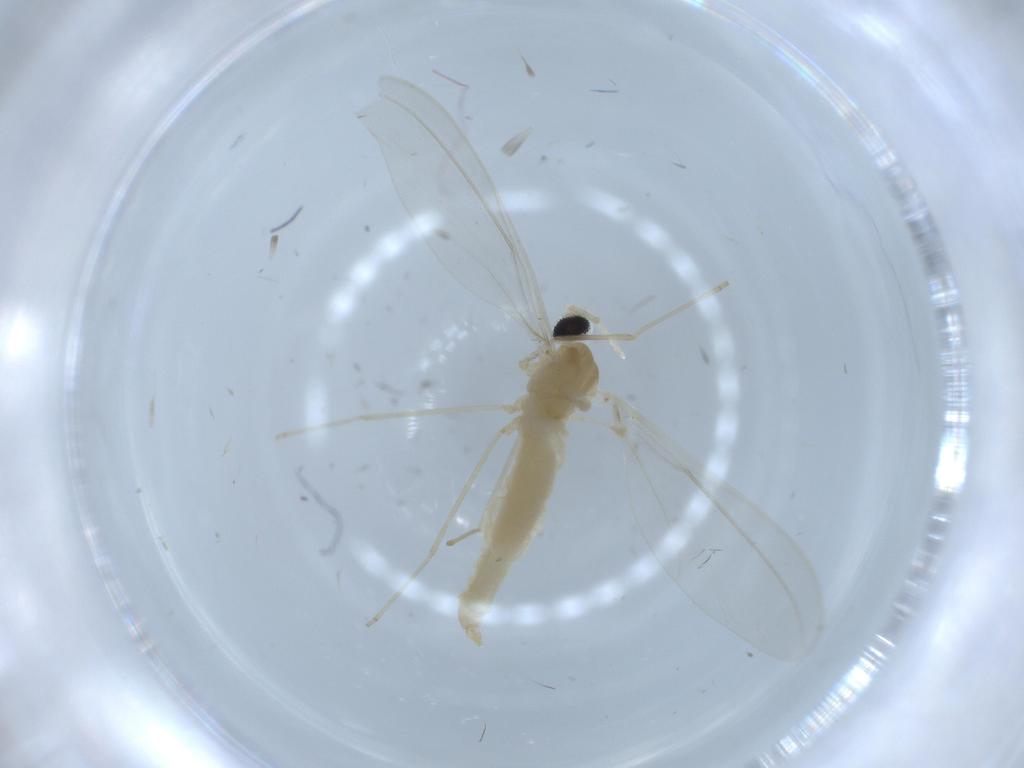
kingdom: Animalia
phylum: Arthropoda
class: Insecta
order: Diptera
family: Cecidomyiidae
